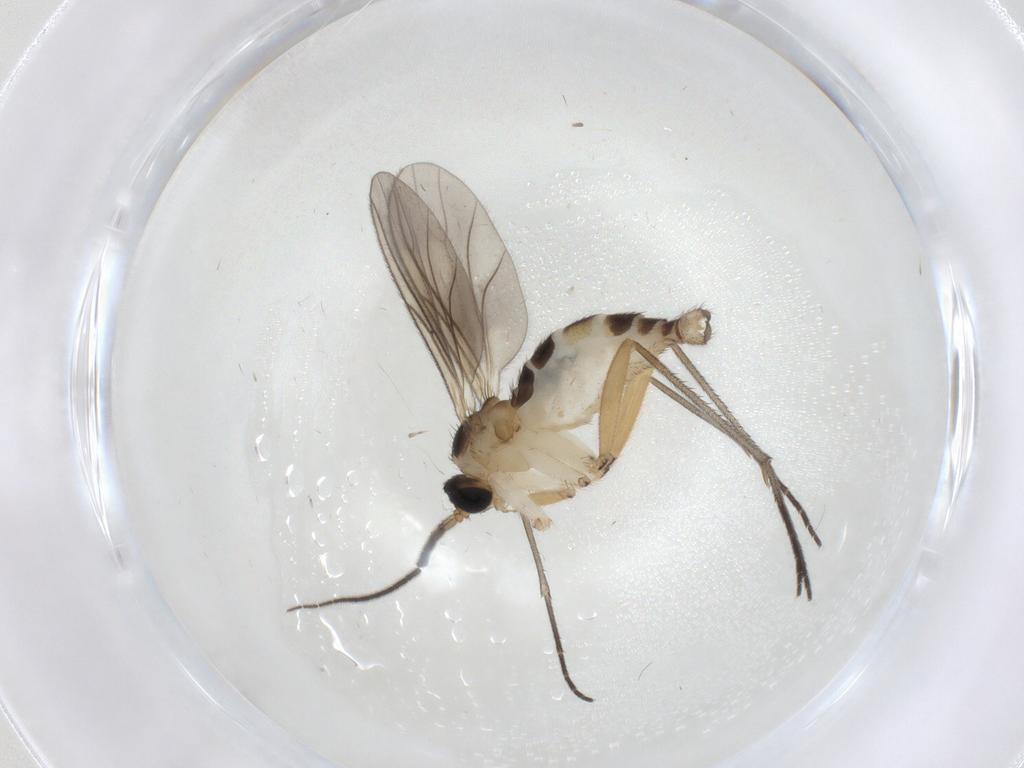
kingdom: Animalia
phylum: Arthropoda
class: Insecta
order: Diptera
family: Sciaridae
